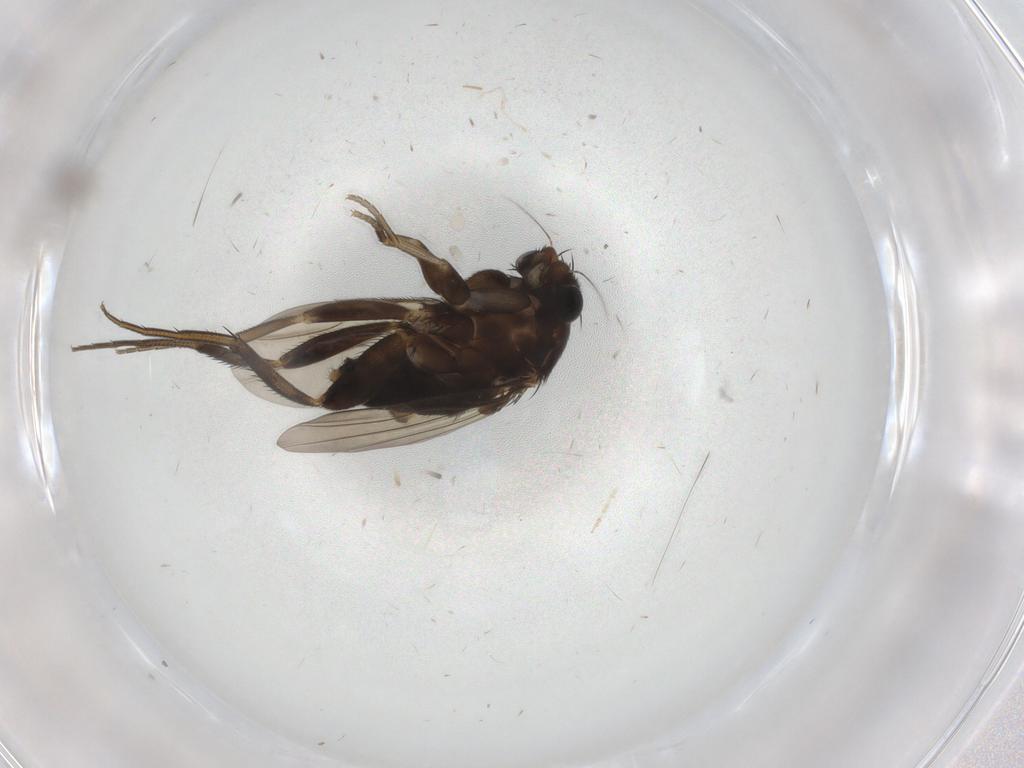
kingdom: Animalia
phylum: Arthropoda
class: Insecta
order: Diptera
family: Phoridae
